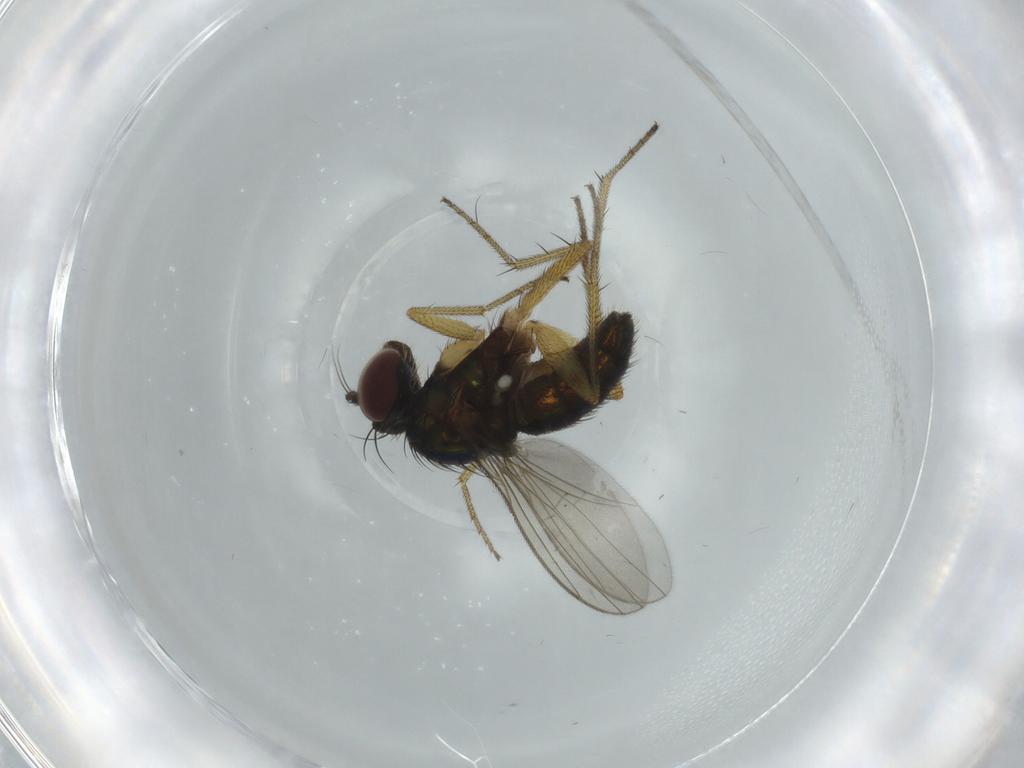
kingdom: Animalia
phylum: Arthropoda
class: Insecta
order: Diptera
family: Dolichopodidae
